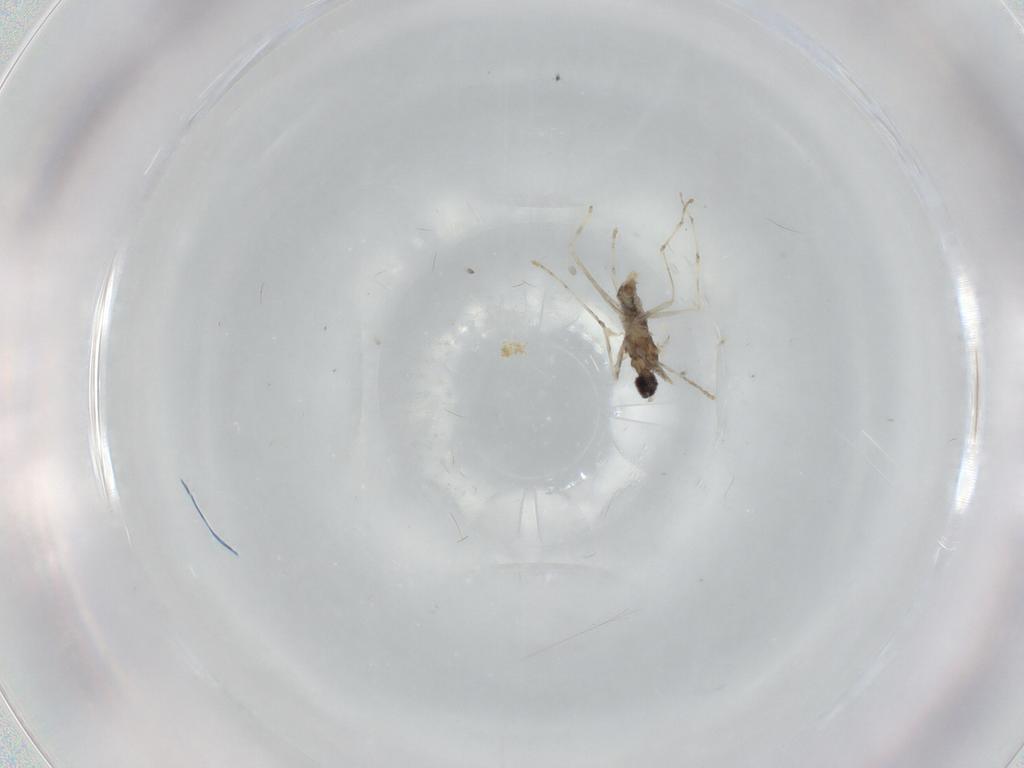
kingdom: Animalia
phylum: Arthropoda
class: Insecta
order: Diptera
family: Cecidomyiidae
